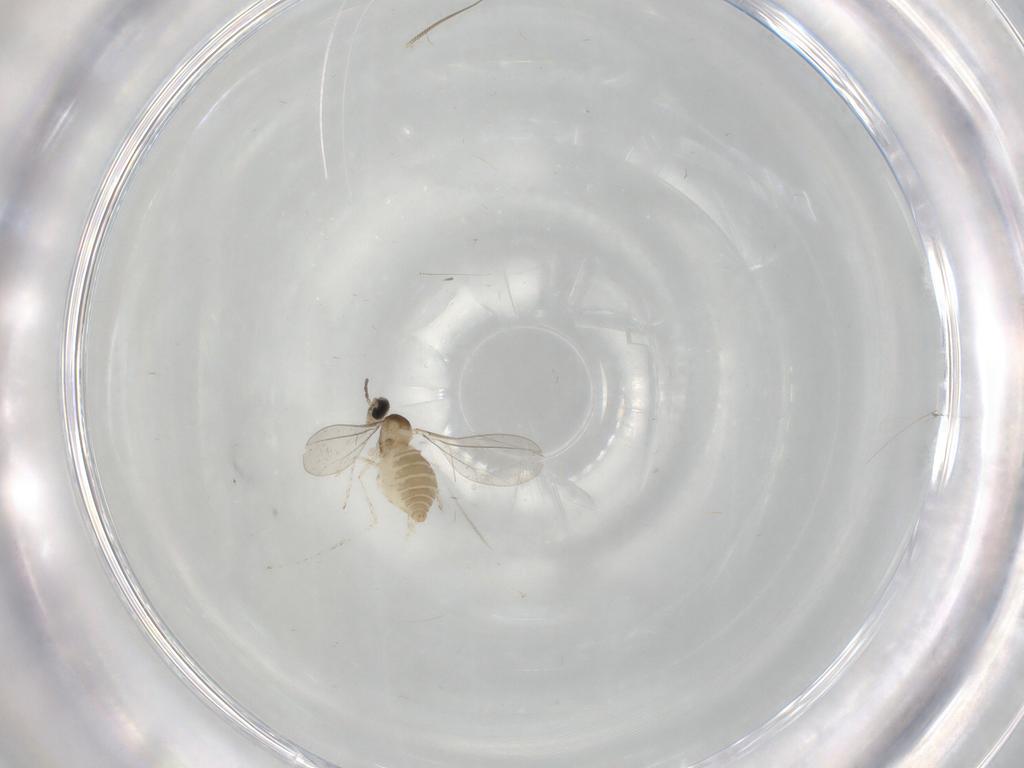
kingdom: Animalia
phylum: Arthropoda
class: Insecta
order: Diptera
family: Cecidomyiidae
